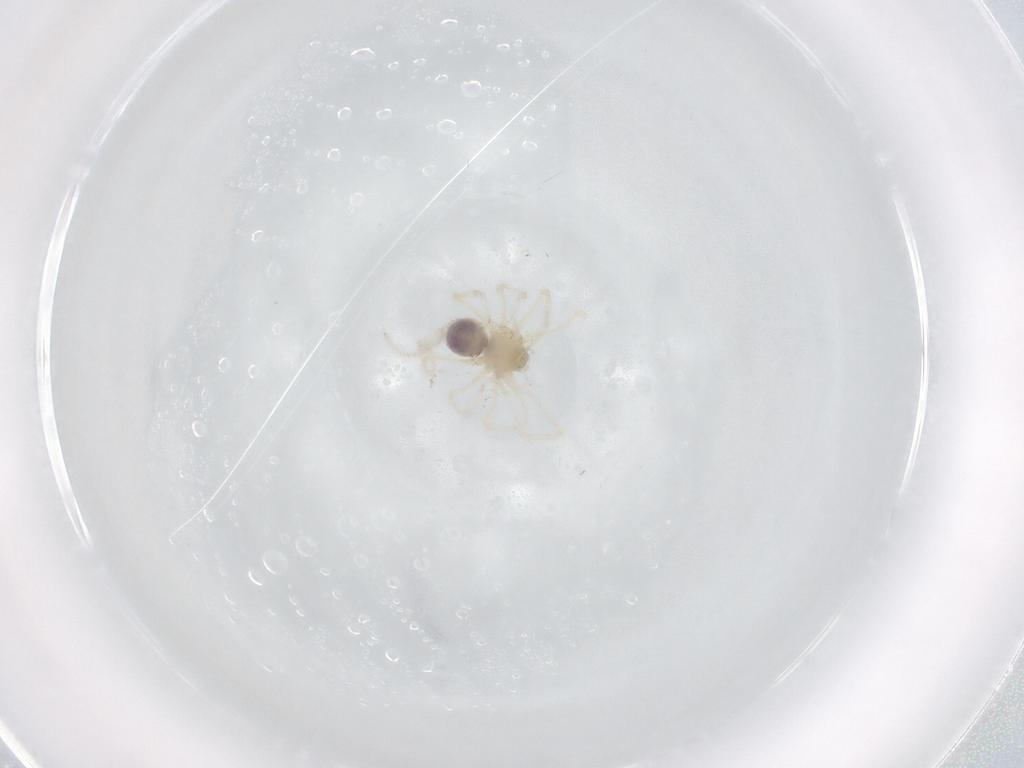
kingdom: Animalia
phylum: Arthropoda
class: Arachnida
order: Araneae
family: Pholcidae
